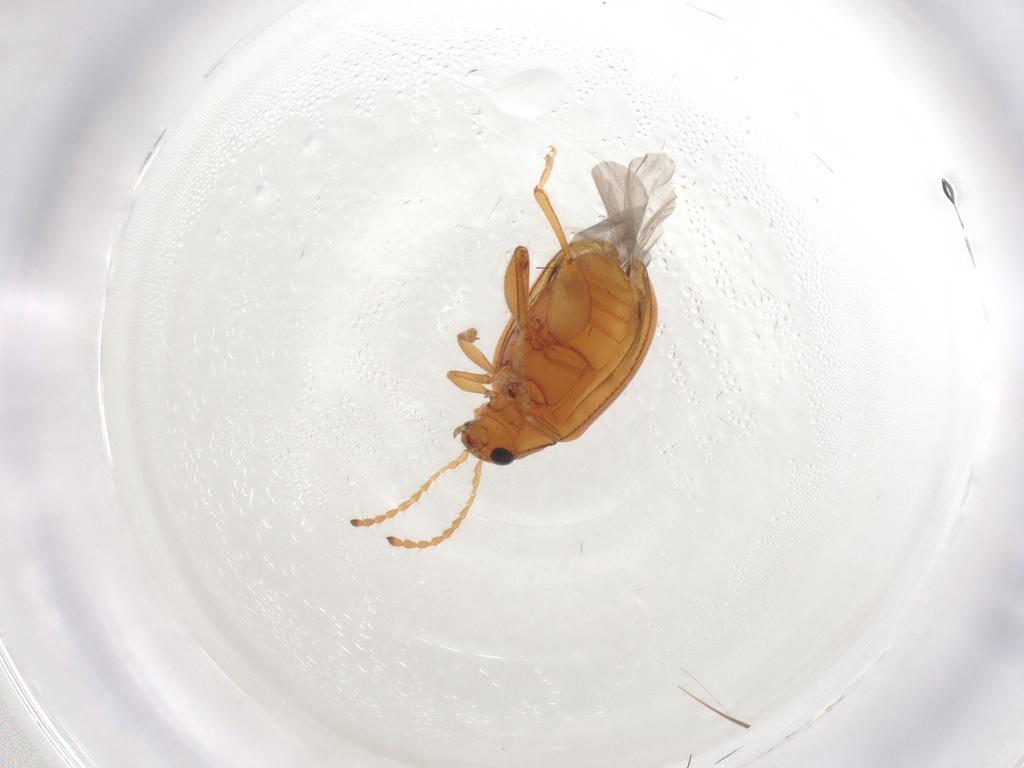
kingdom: Animalia
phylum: Arthropoda
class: Insecta
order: Coleoptera
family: Chrysomelidae
